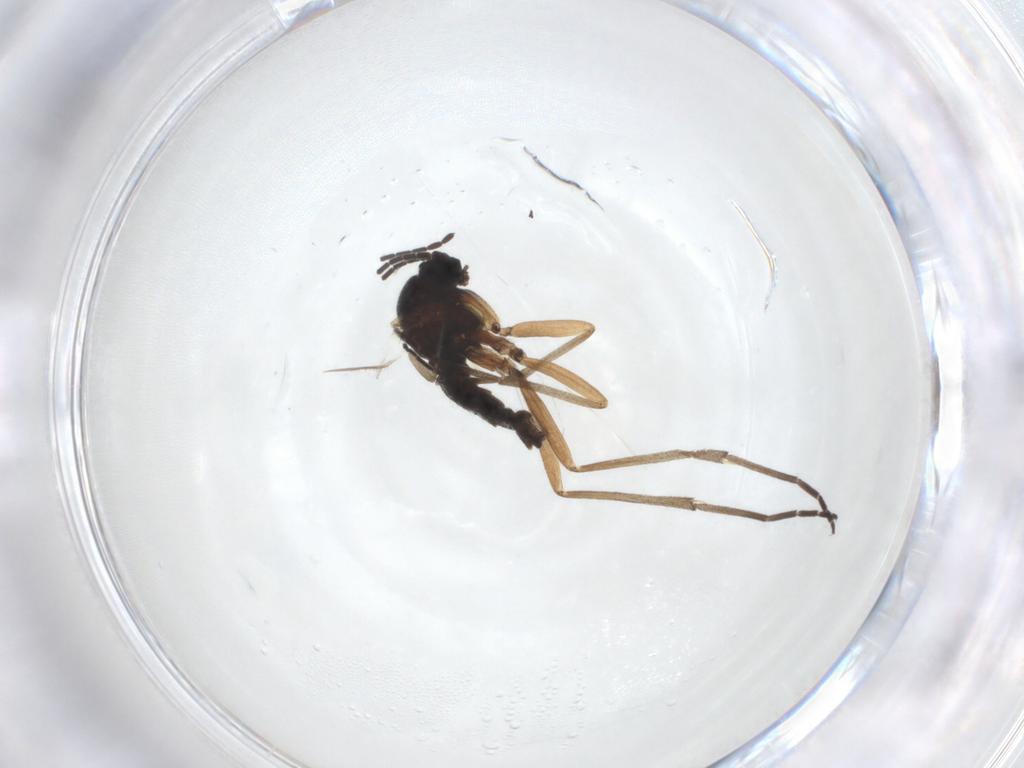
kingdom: Animalia
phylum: Arthropoda
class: Insecta
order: Diptera
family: Sciaridae
